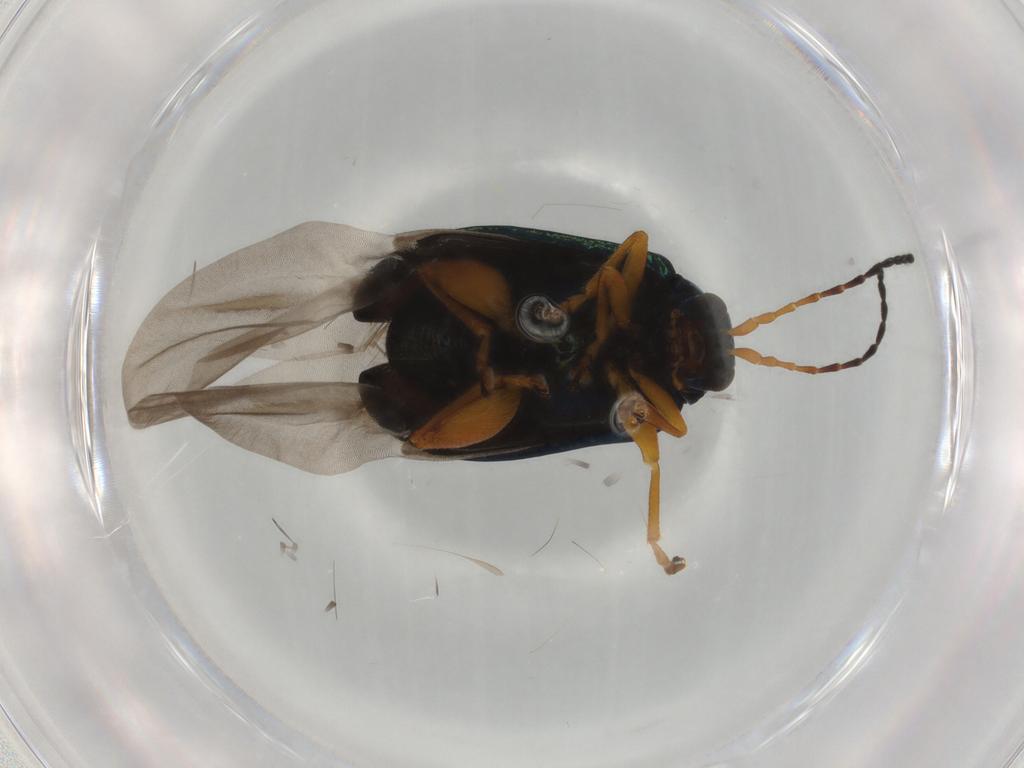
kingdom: Animalia
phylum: Arthropoda
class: Insecta
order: Coleoptera
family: Chrysomelidae
